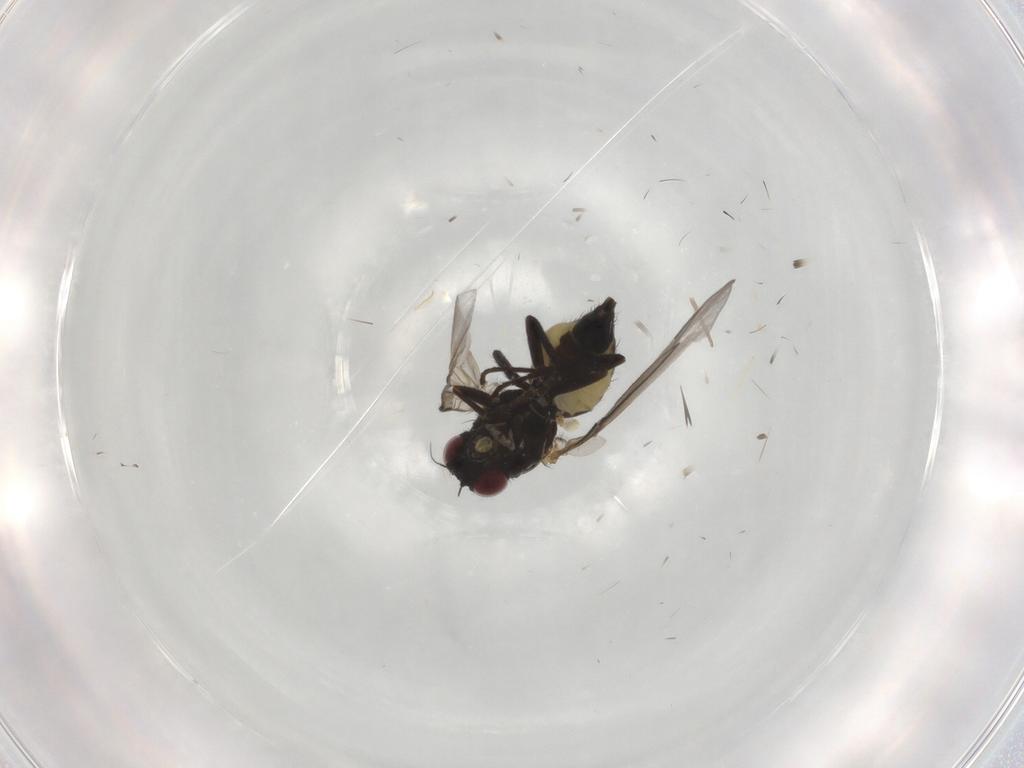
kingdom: Animalia
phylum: Arthropoda
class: Insecta
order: Diptera
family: Agromyzidae
